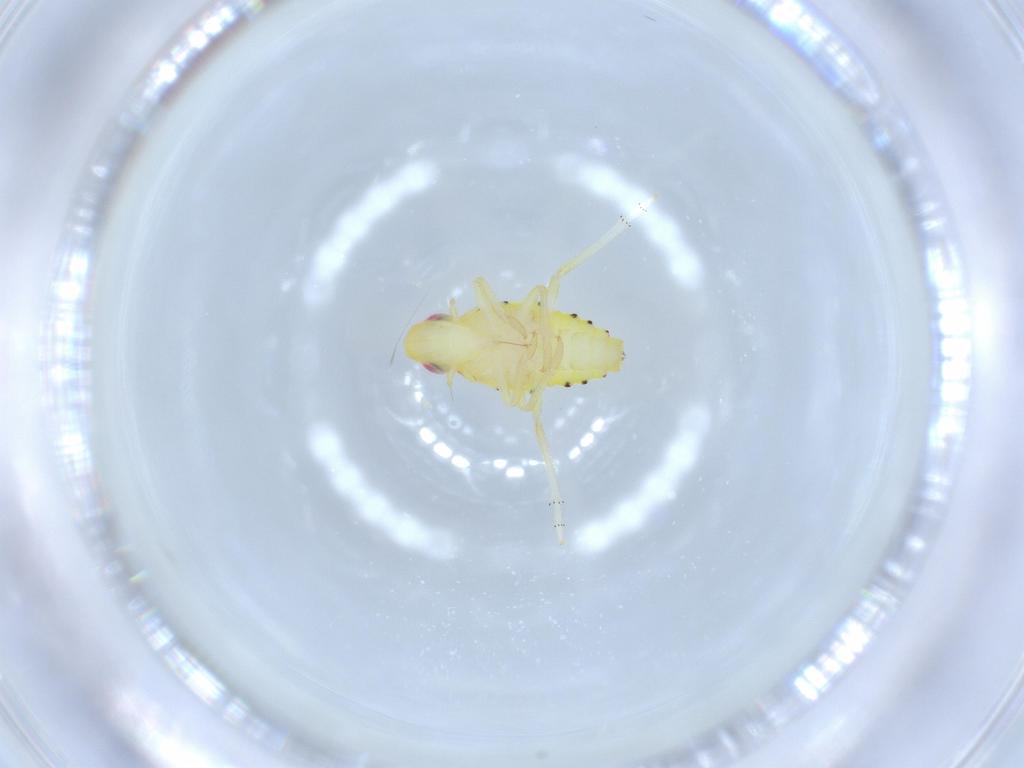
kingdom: Animalia
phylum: Arthropoda
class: Insecta
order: Hemiptera
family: Tropiduchidae
